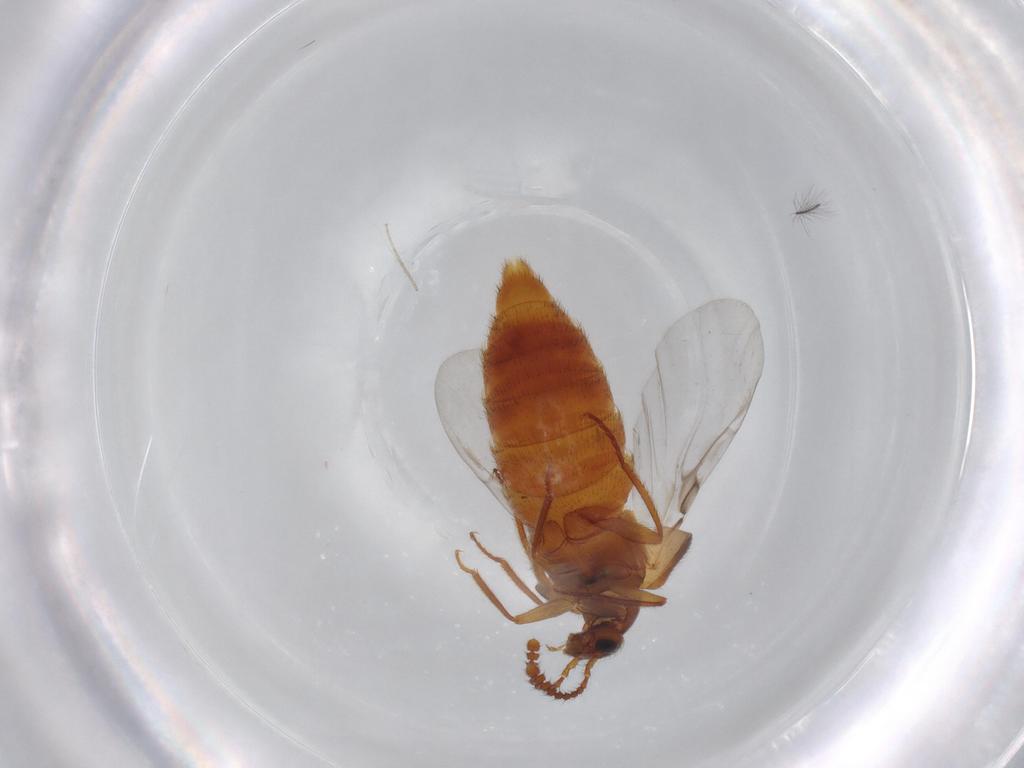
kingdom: Animalia
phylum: Arthropoda
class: Insecta
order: Coleoptera
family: Staphylinidae
